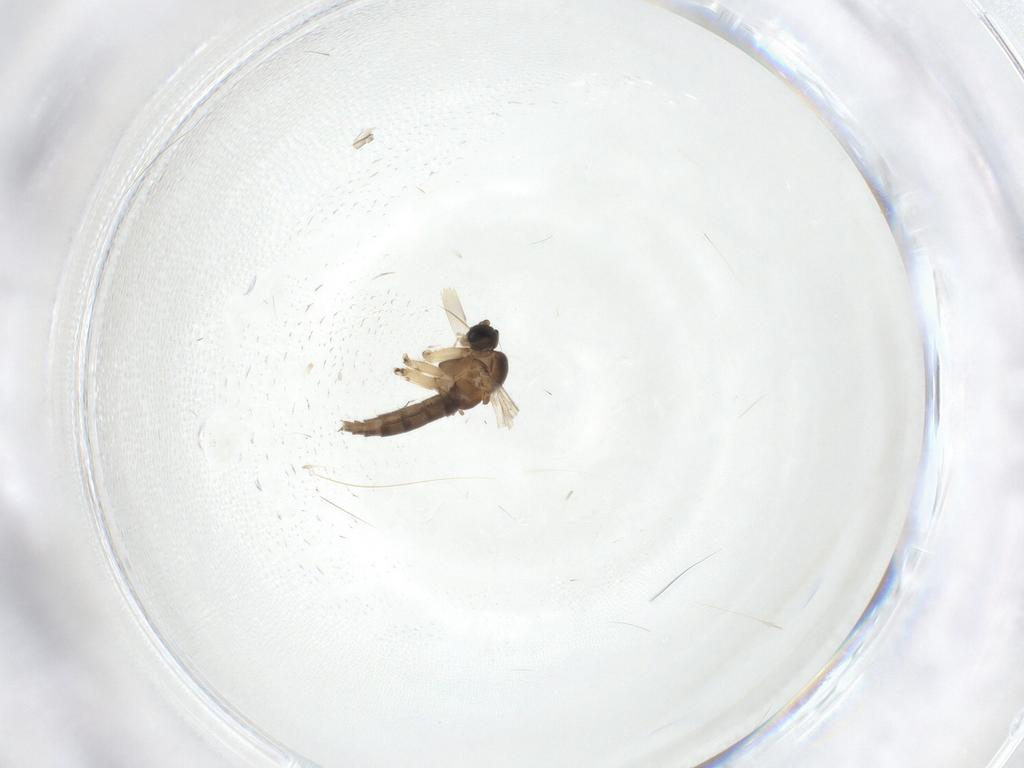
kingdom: Animalia
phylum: Arthropoda
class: Insecta
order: Diptera
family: Sciaridae
